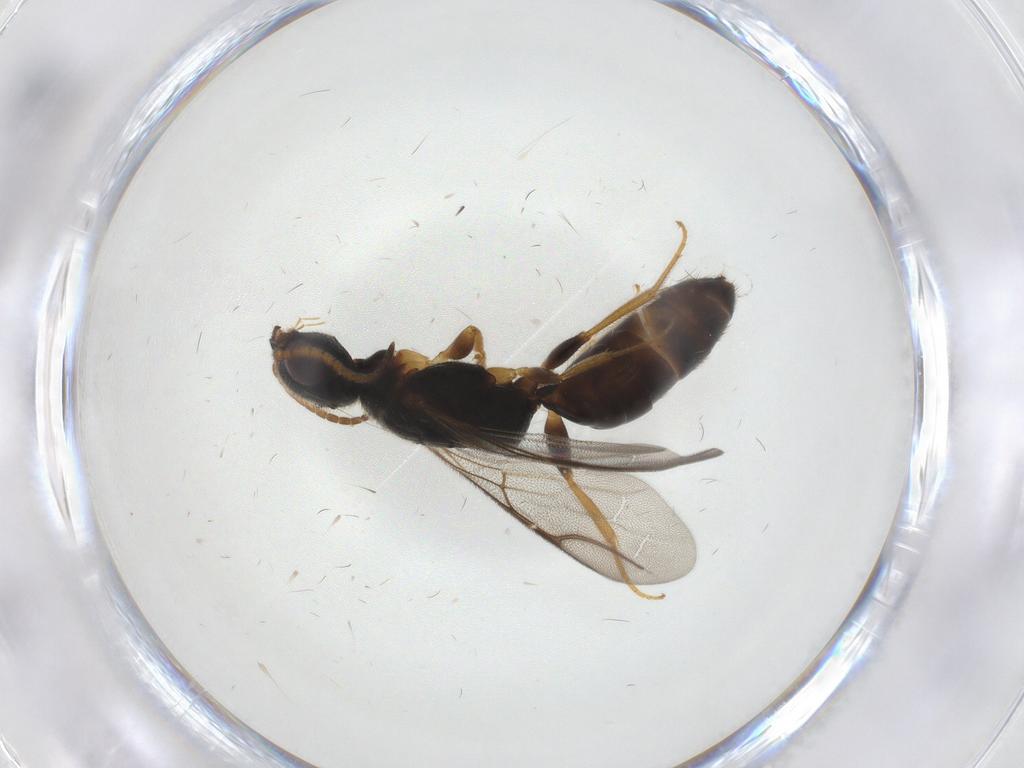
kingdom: Animalia
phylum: Arthropoda
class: Insecta
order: Hymenoptera
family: Bethylidae
